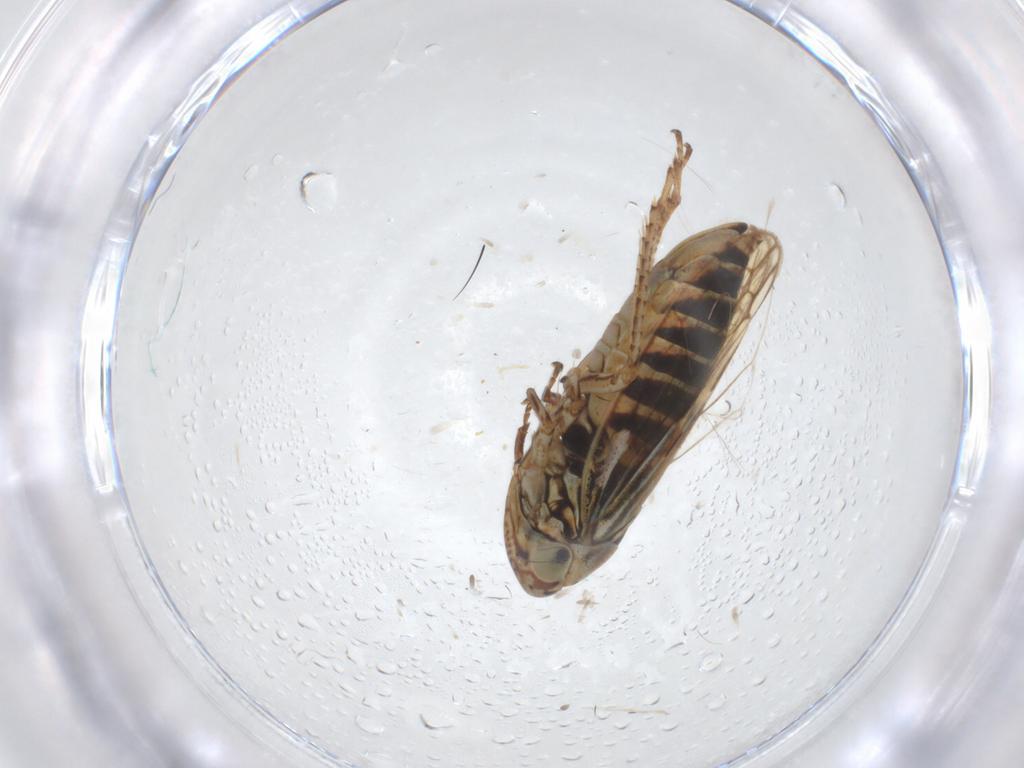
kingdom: Animalia
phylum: Arthropoda
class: Insecta
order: Hemiptera
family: Cicadellidae
